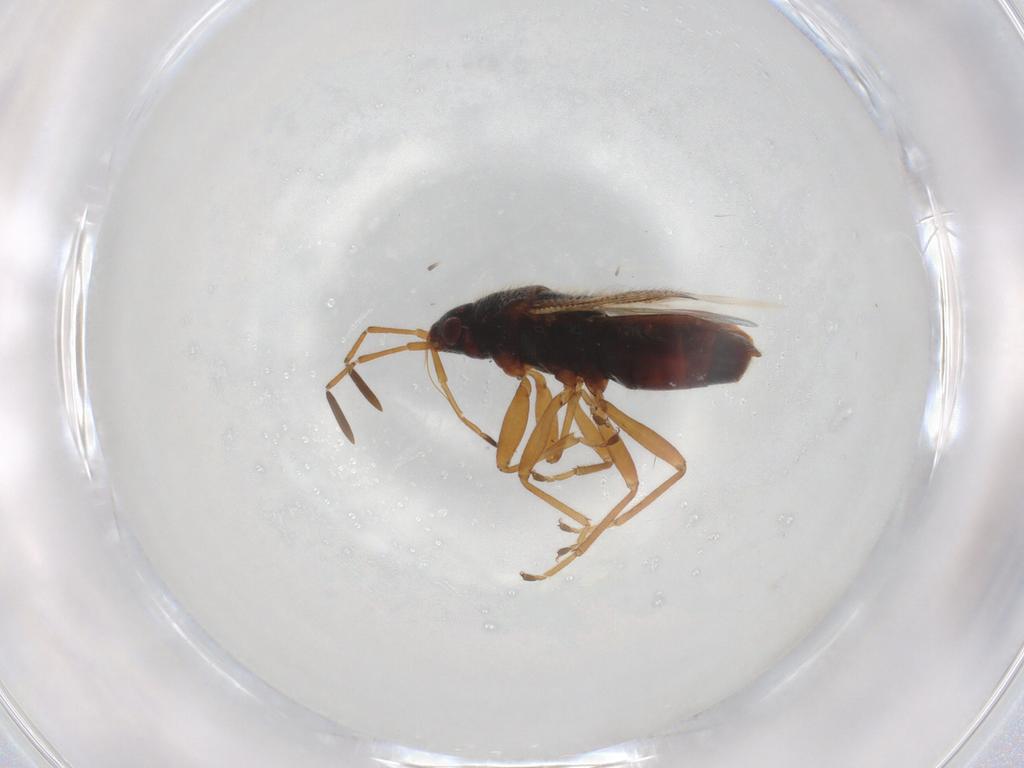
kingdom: Animalia
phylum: Arthropoda
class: Insecta
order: Hemiptera
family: Rhyparochromidae
